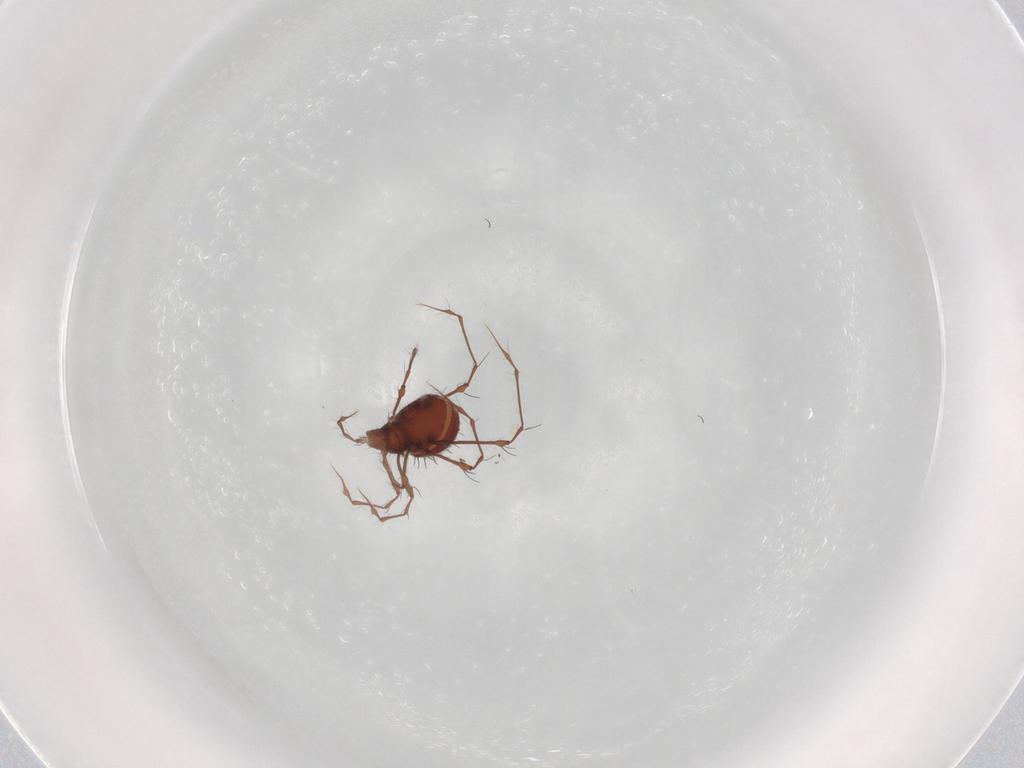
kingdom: Animalia
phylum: Arthropoda
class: Arachnida
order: Sarcoptiformes
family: Damaeidae
